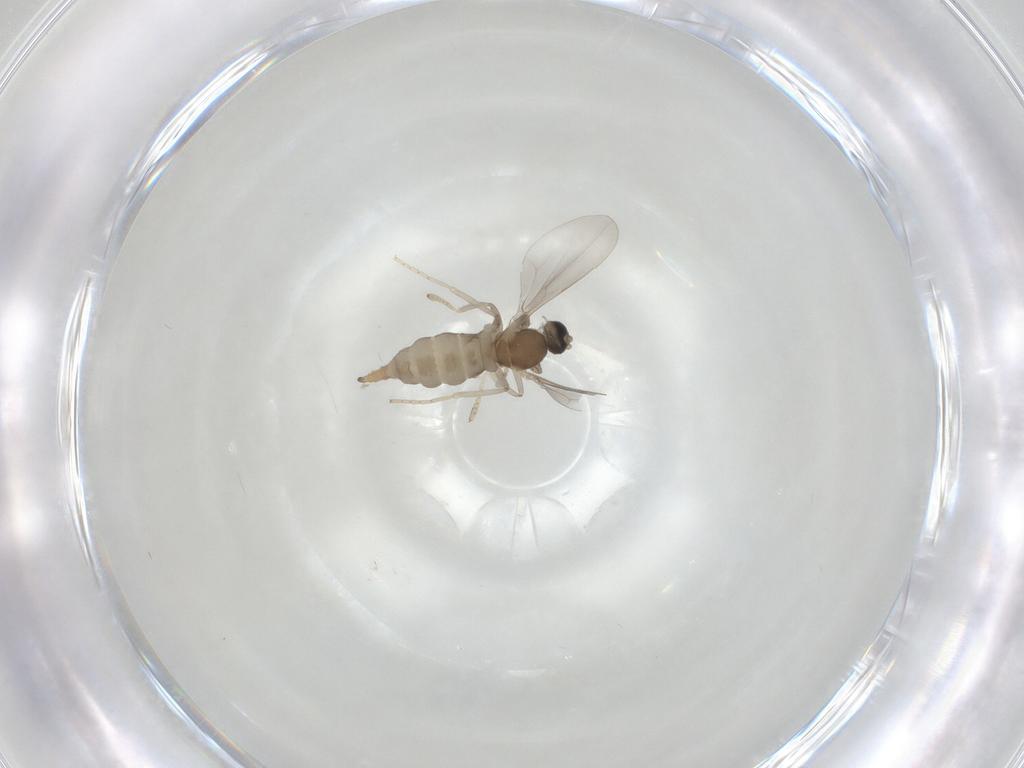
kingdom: Animalia
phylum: Arthropoda
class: Insecta
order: Diptera
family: Cecidomyiidae
